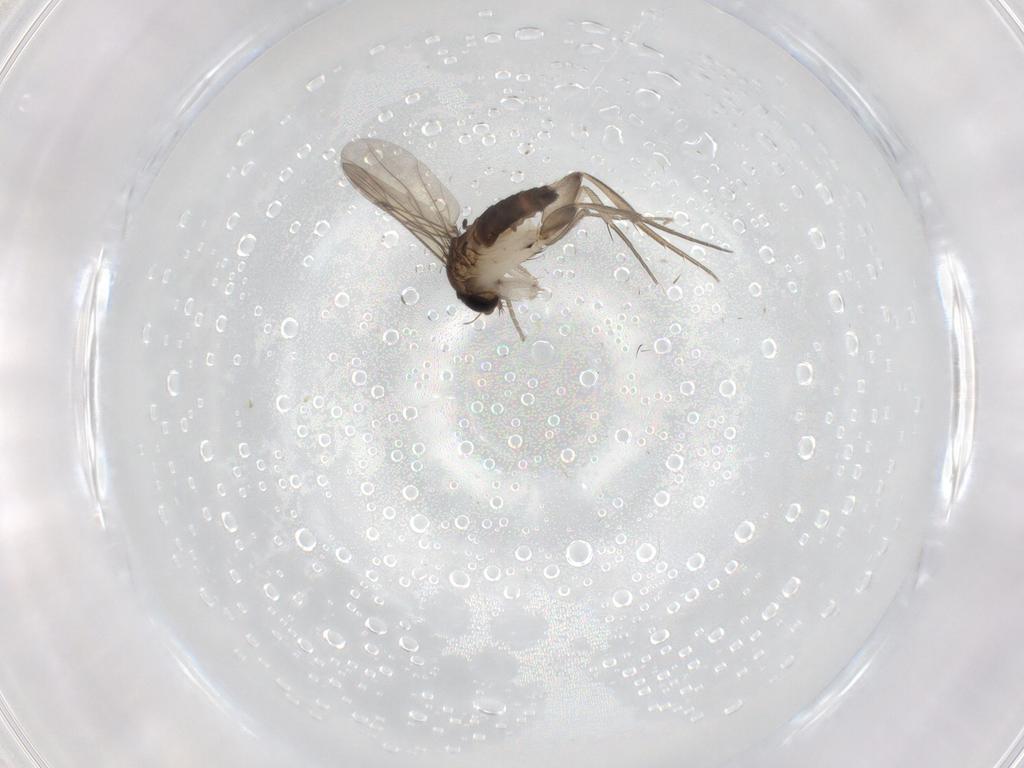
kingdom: Animalia
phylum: Arthropoda
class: Insecta
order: Diptera
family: Phoridae
